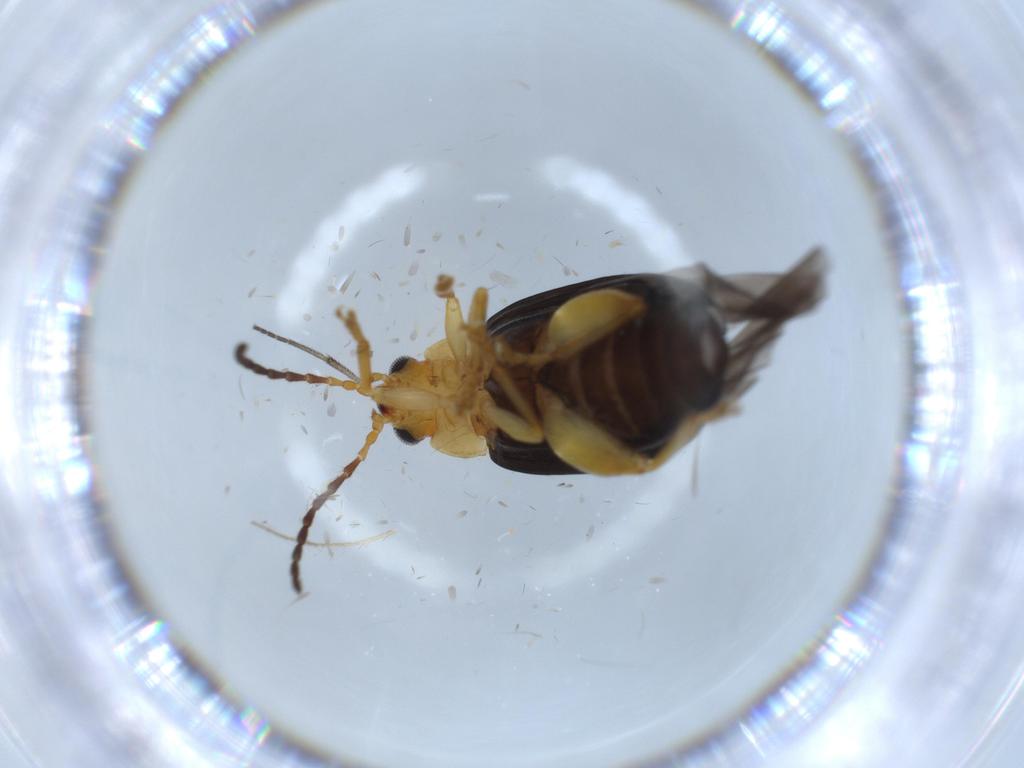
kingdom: Animalia
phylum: Arthropoda
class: Insecta
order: Coleoptera
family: Chrysomelidae
